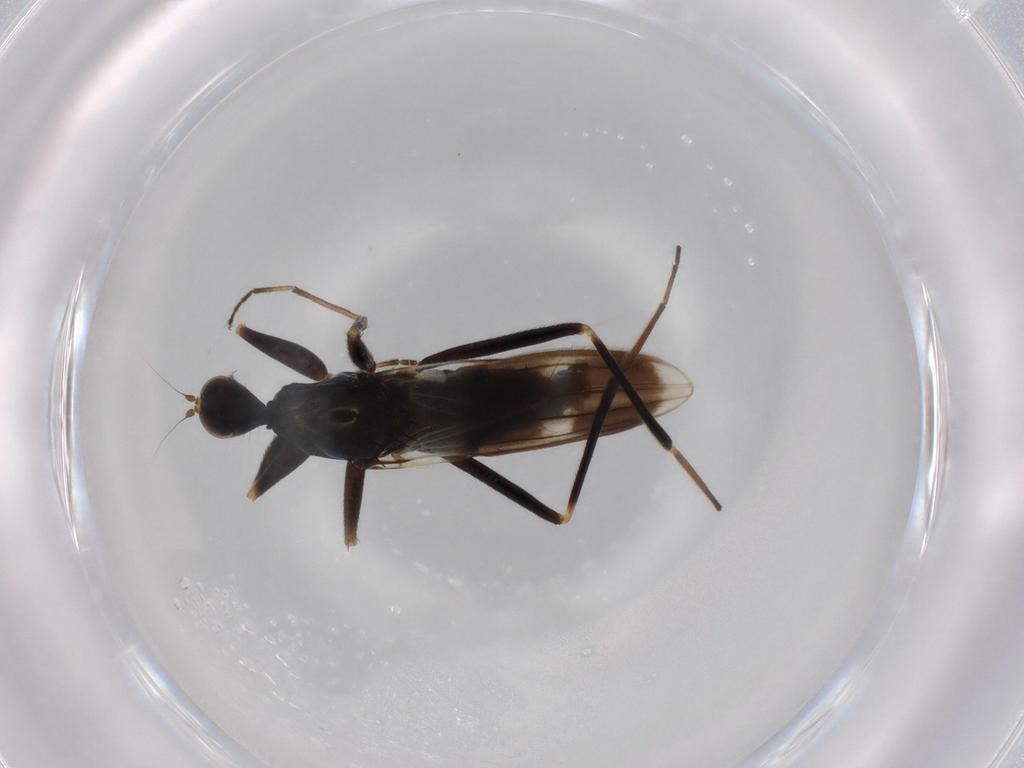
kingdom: Animalia
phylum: Arthropoda
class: Insecta
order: Diptera
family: Hybotidae
